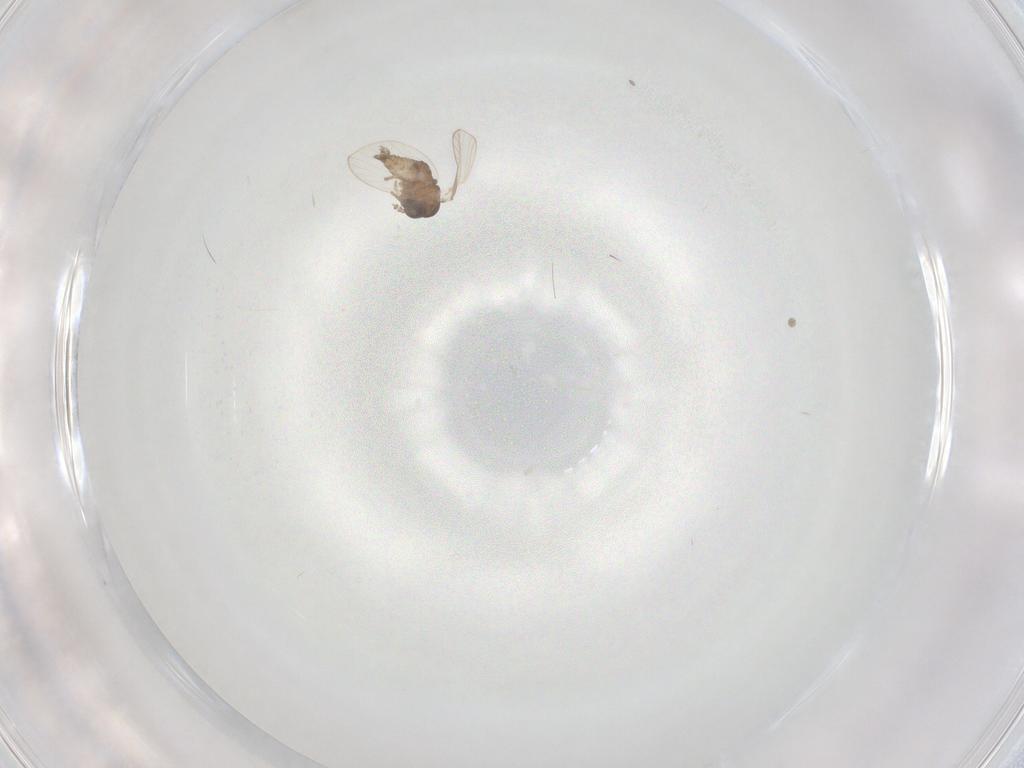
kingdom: Animalia
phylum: Arthropoda
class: Insecta
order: Diptera
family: Sarcophagidae
